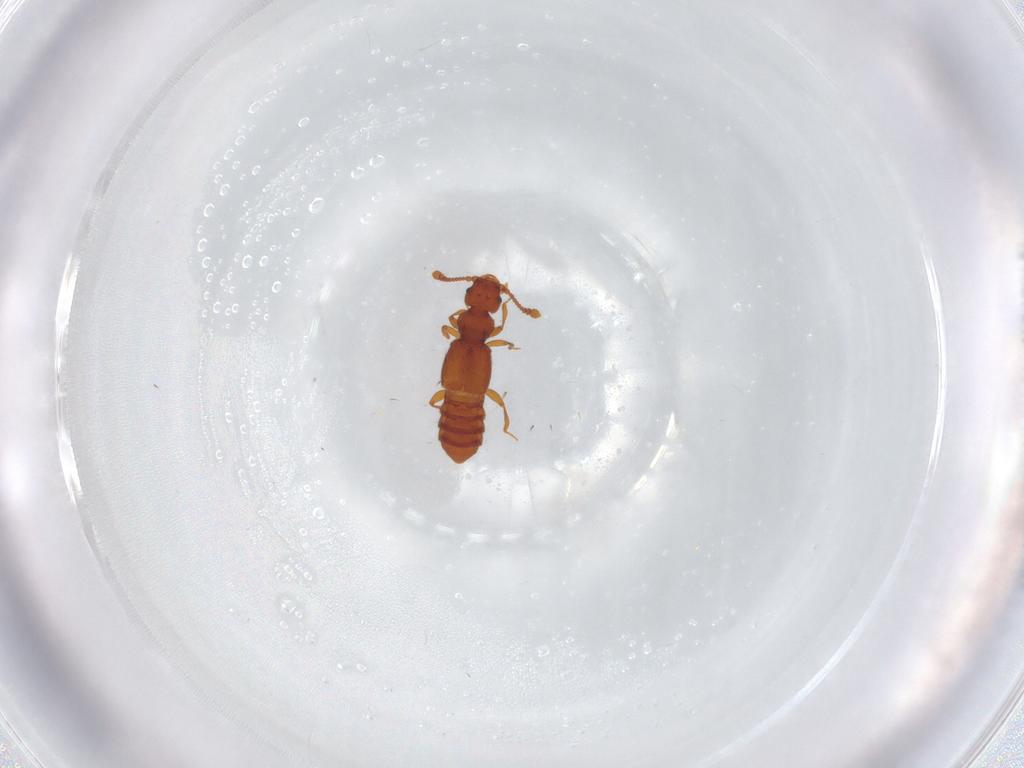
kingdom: Animalia
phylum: Arthropoda
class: Insecta
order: Coleoptera
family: Staphylinidae
